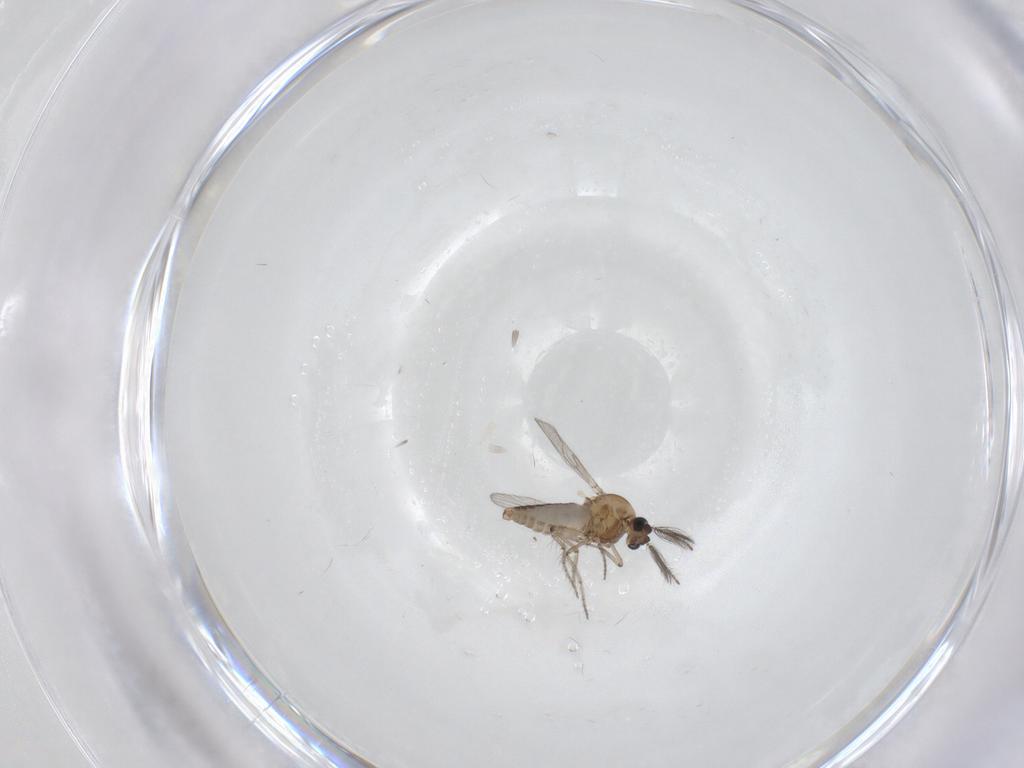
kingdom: Animalia
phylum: Arthropoda
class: Insecta
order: Diptera
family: Ceratopogonidae
